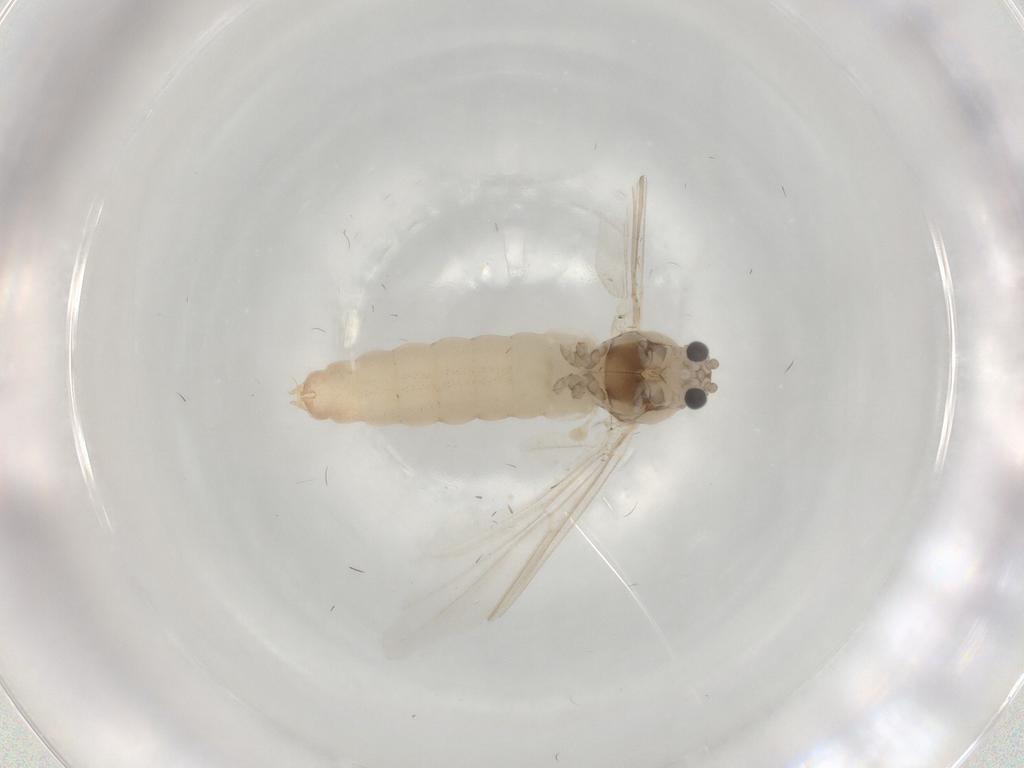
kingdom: Animalia
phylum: Arthropoda
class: Insecta
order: Diptera
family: Chironomidae
